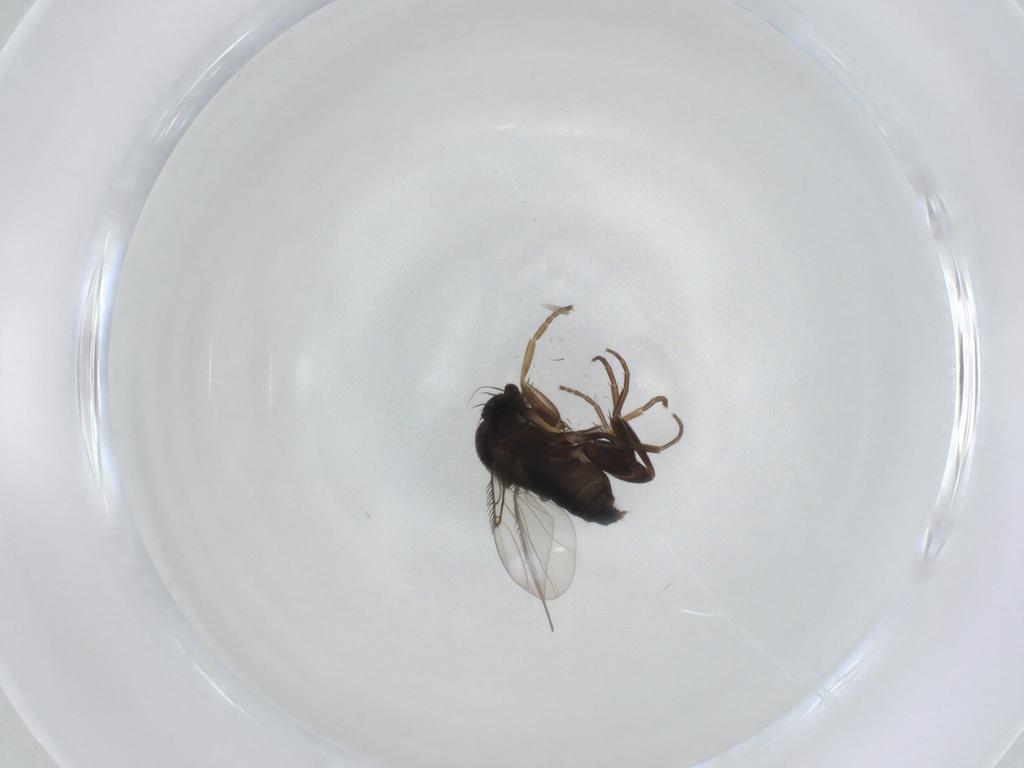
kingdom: Animalia
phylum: Arthropoda
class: Insecta
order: Diptera
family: Phoridae
